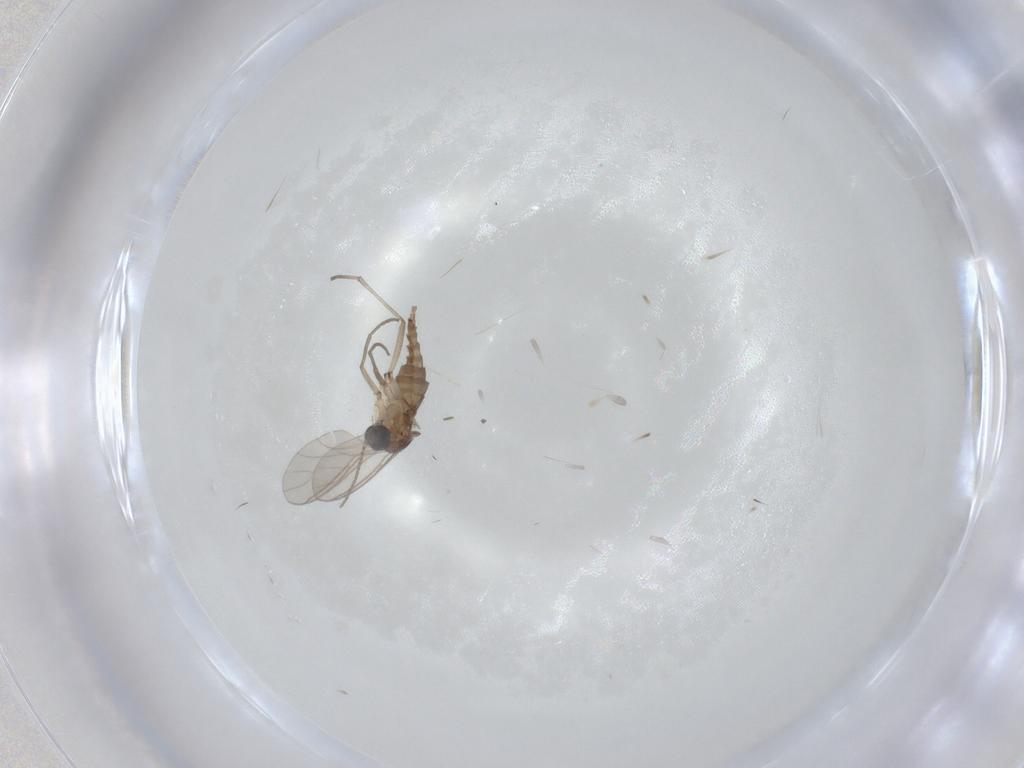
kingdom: Animalia
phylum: Arthropoda
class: Insecta
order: Diptera
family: Sciaridae
